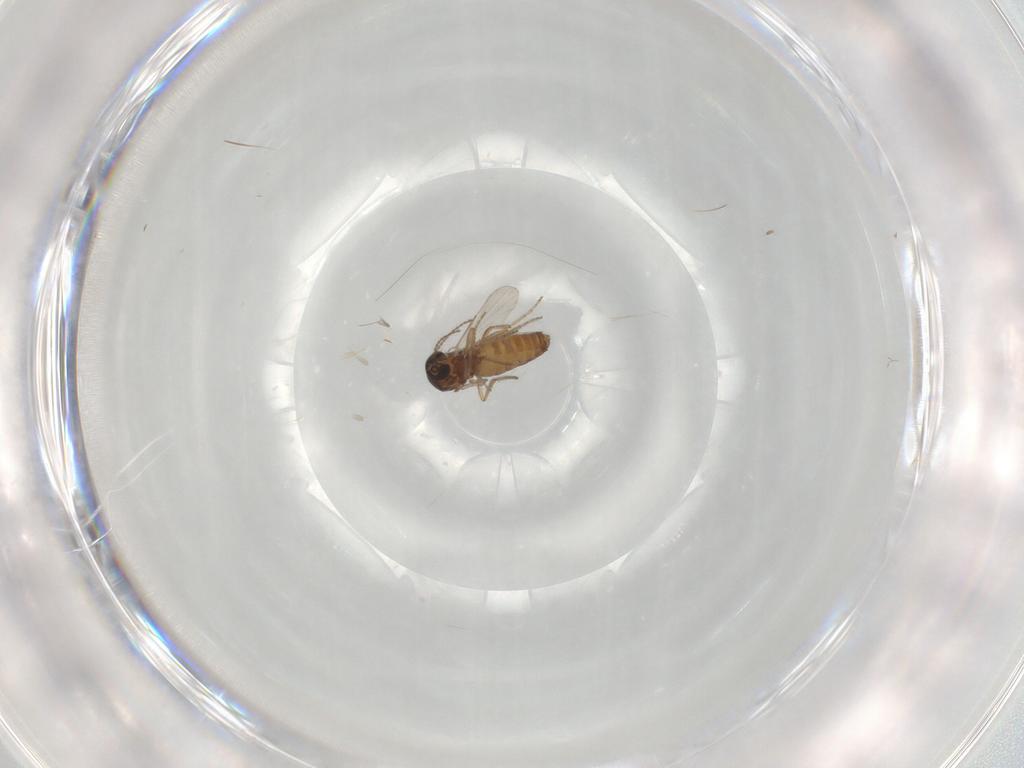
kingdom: Animalia
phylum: Arthropoda
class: Insecta
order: Diptera
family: Ceratopogonidae
